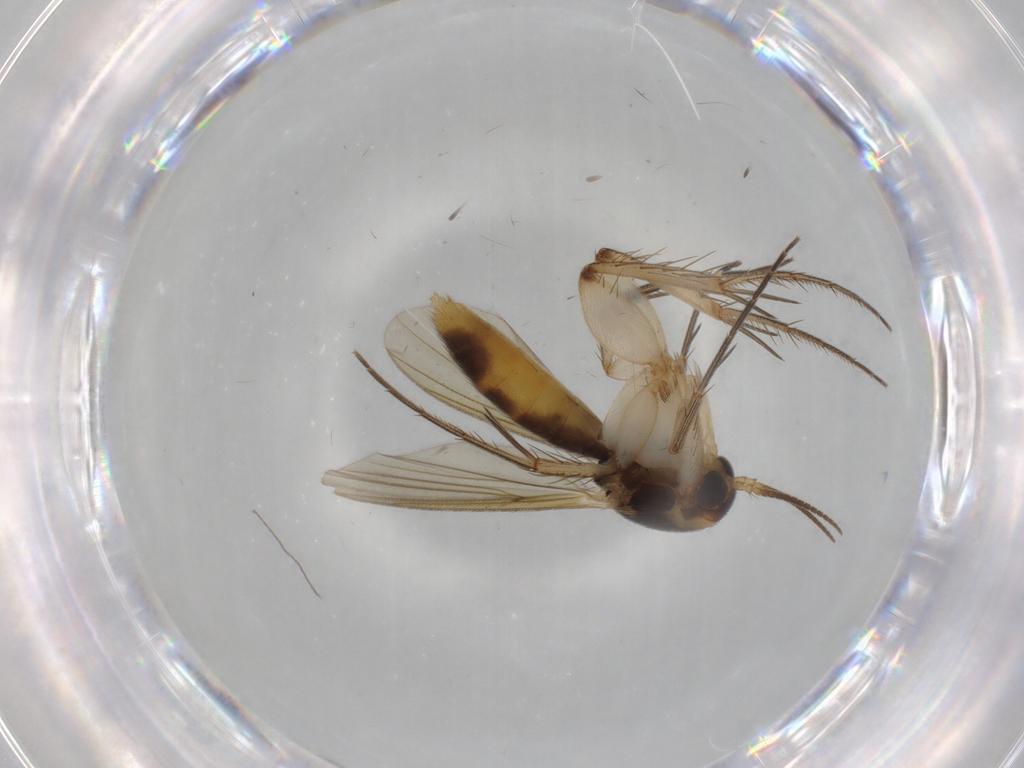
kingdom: Animalia
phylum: Arthropoda
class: Insecta
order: Diptera
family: Mycetophilidae
